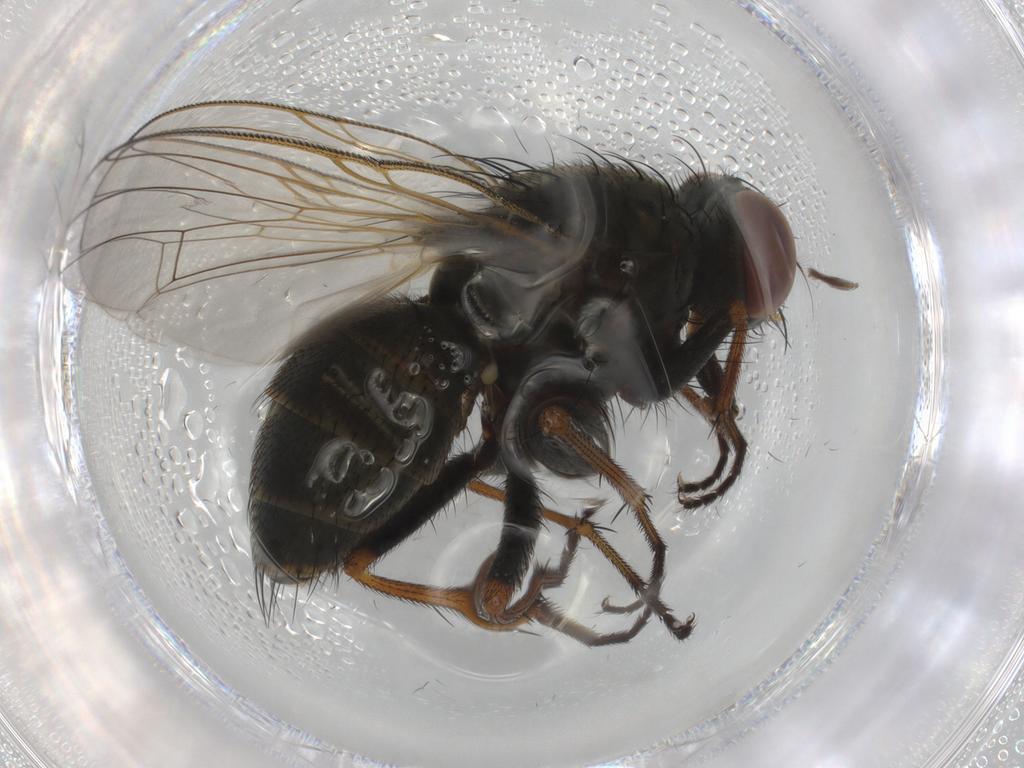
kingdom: Animalia
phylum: Arthropoda
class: Insecta
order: Diptera
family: Muscidae
